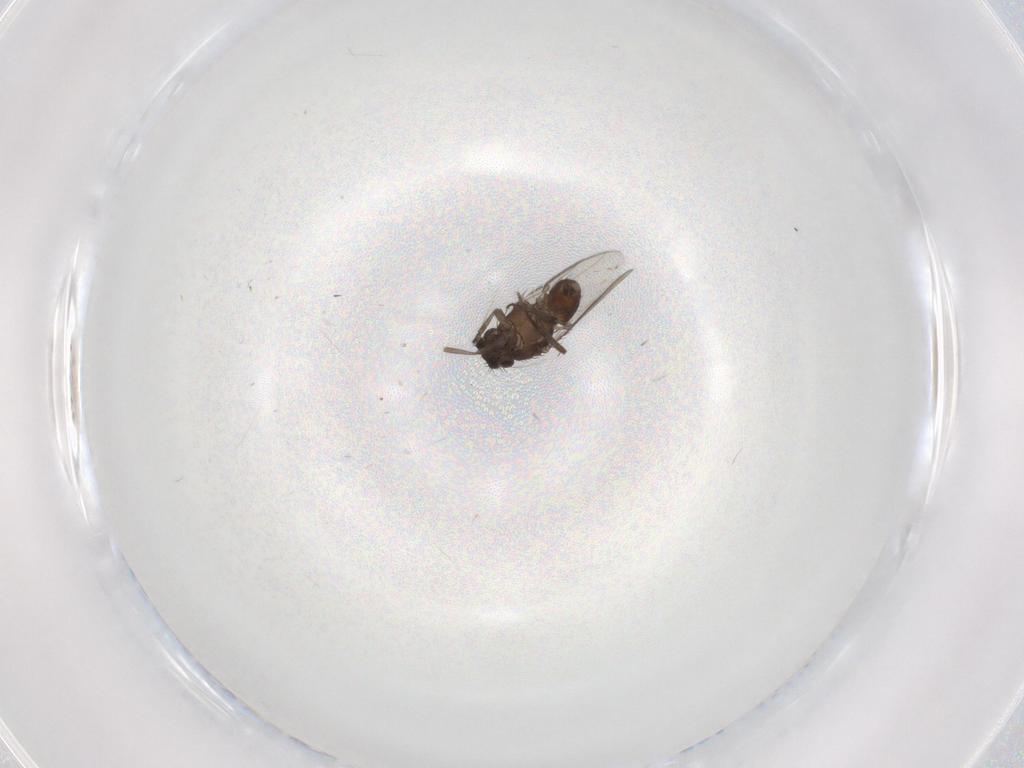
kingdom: Animalia
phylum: Arthropoda
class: Insecta
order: Diptera
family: Sphaeroceridae
